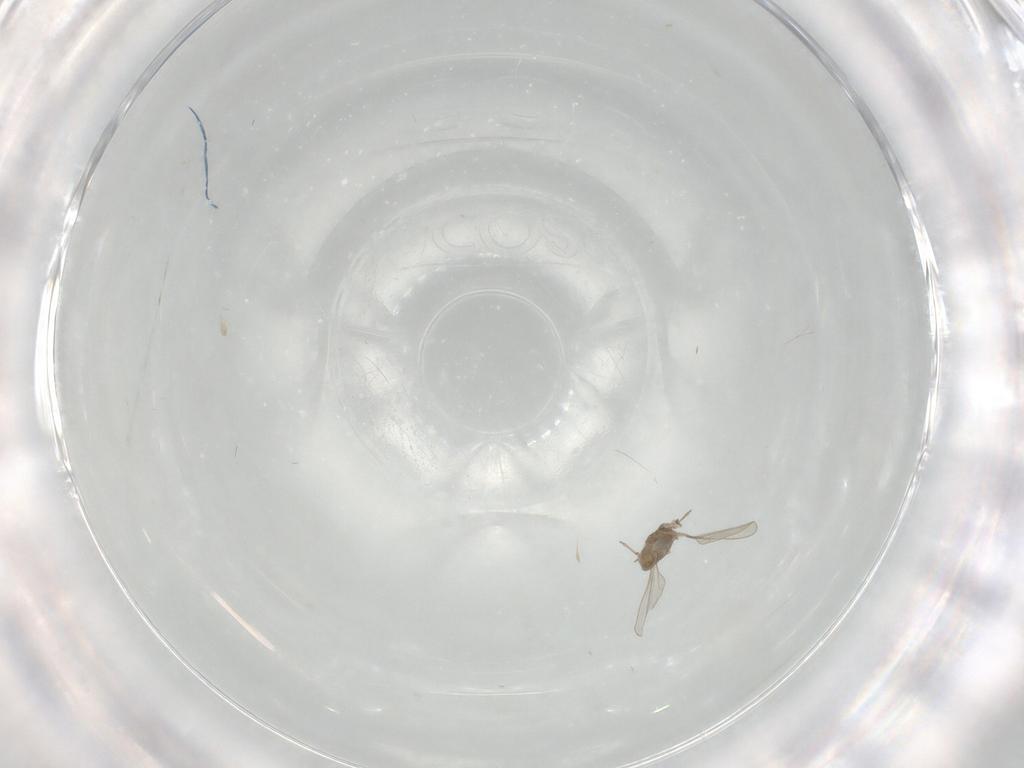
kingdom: Animalia
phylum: Arthropoda
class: Insecta
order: Diptera
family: Cecidomyiidae
